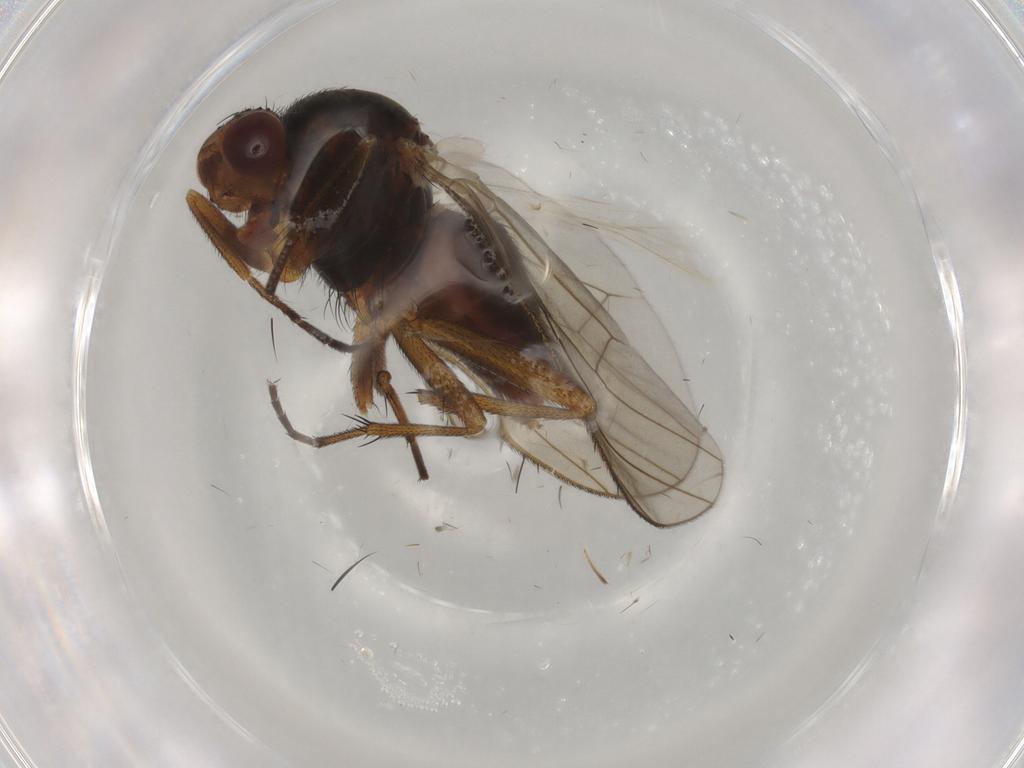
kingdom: Animalia
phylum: Arthropoda
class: Insecta
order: Diptera
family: Heleomyzidae
